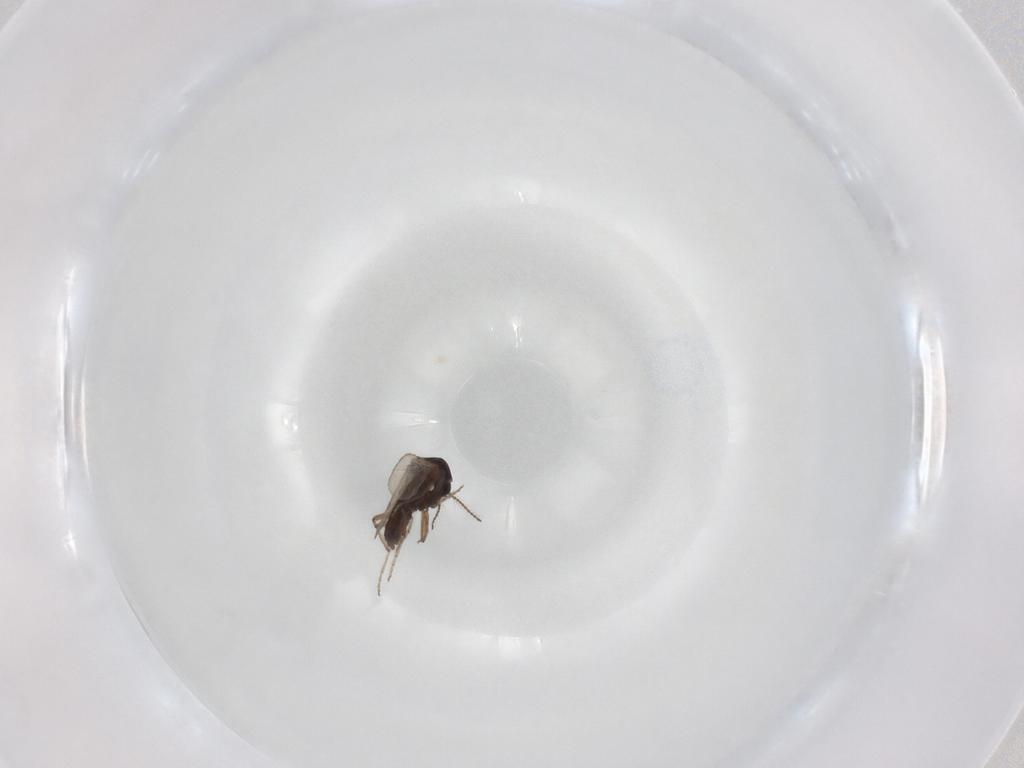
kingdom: Animalia
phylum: Arthropoda
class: Insecta
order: Diptera
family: Ceratopogonidae
